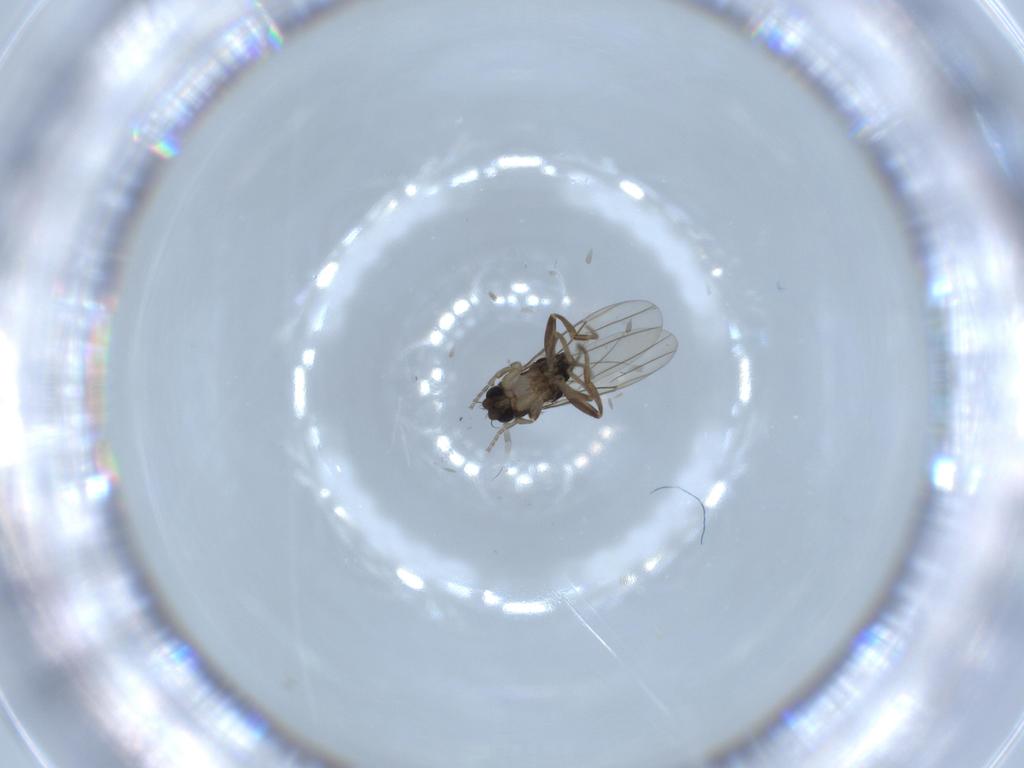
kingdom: Animalia
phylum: Arthropoda
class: Insecta
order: Diptera
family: Phoridae
